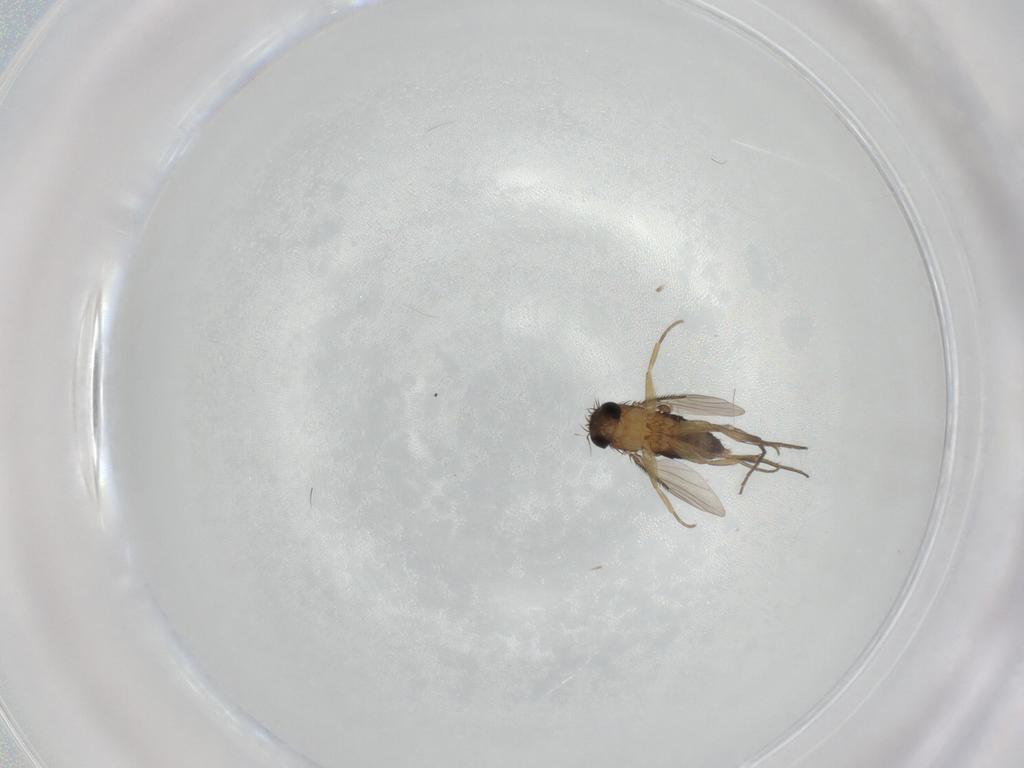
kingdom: Animalia
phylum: Arthropoda
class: Insecta
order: Diptera
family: Phoridae
